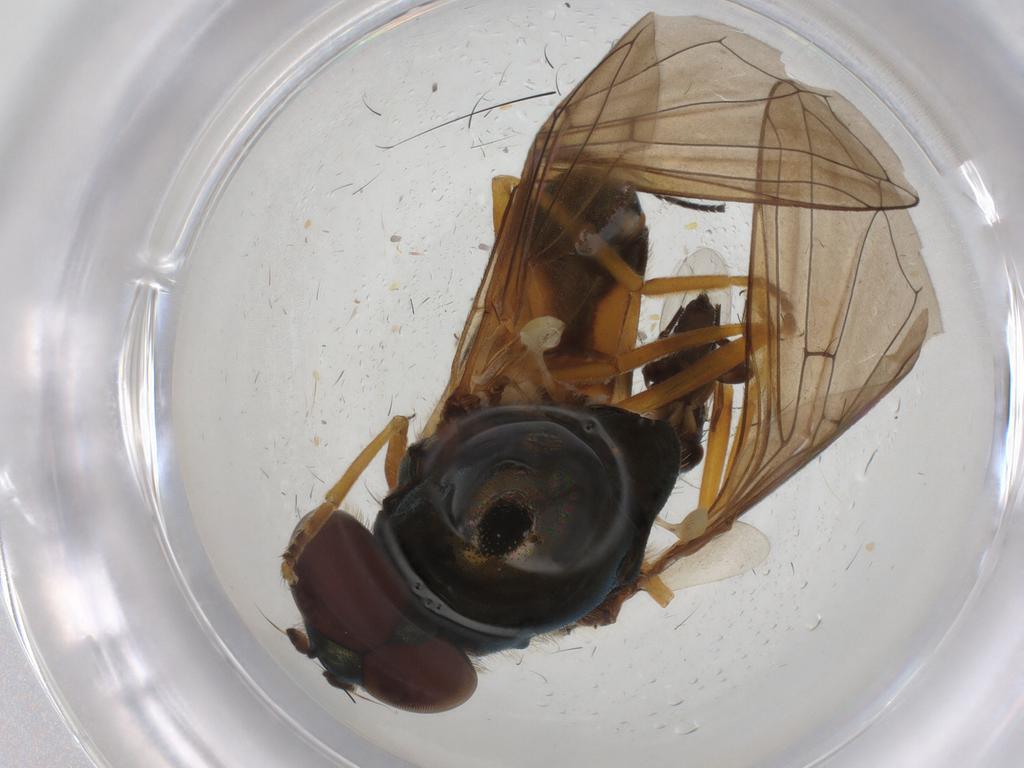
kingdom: Animalia
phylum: Arthropoda
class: Insecta
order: Diptera
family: Syrphidae
